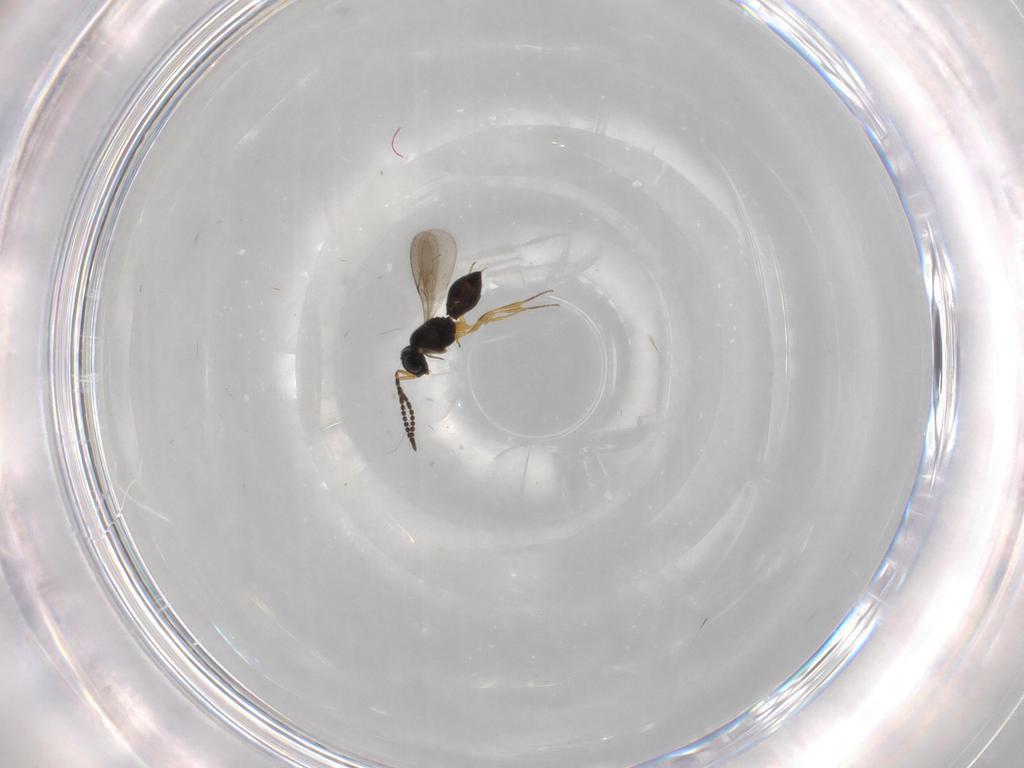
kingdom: Animalia
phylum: Arthropoda
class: Insecta
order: Hymenoptera
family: Scelionidae
